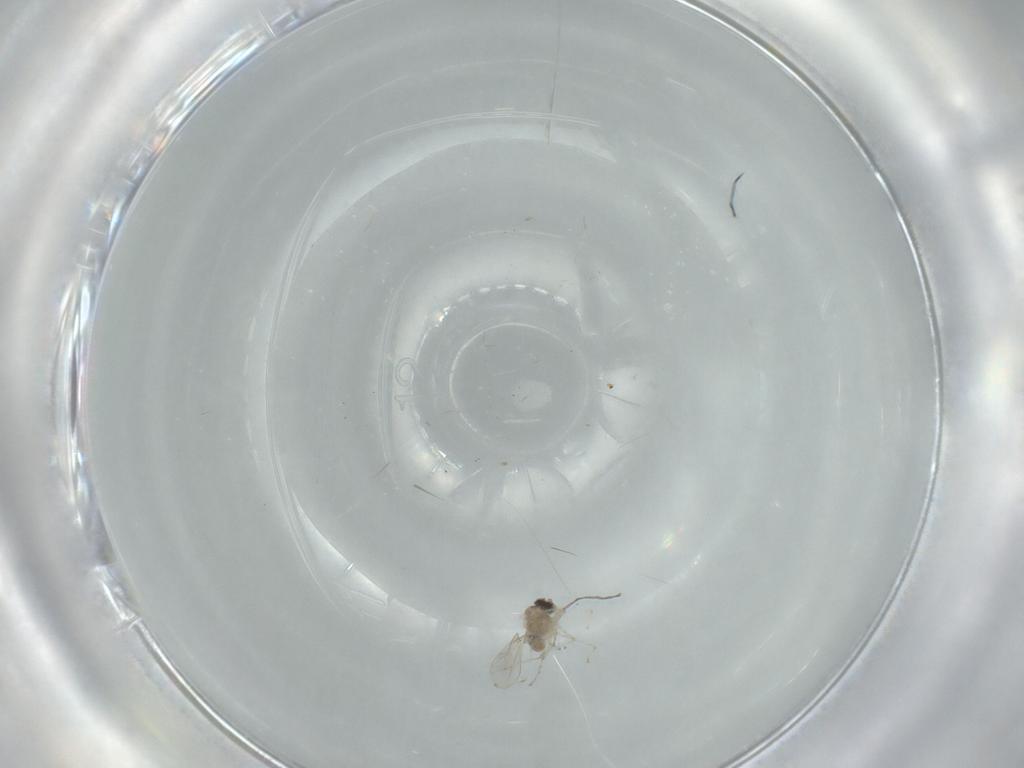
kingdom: Animalia
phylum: Arthropoda
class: Insecta
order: Diptera
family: Cecidomyiidae
